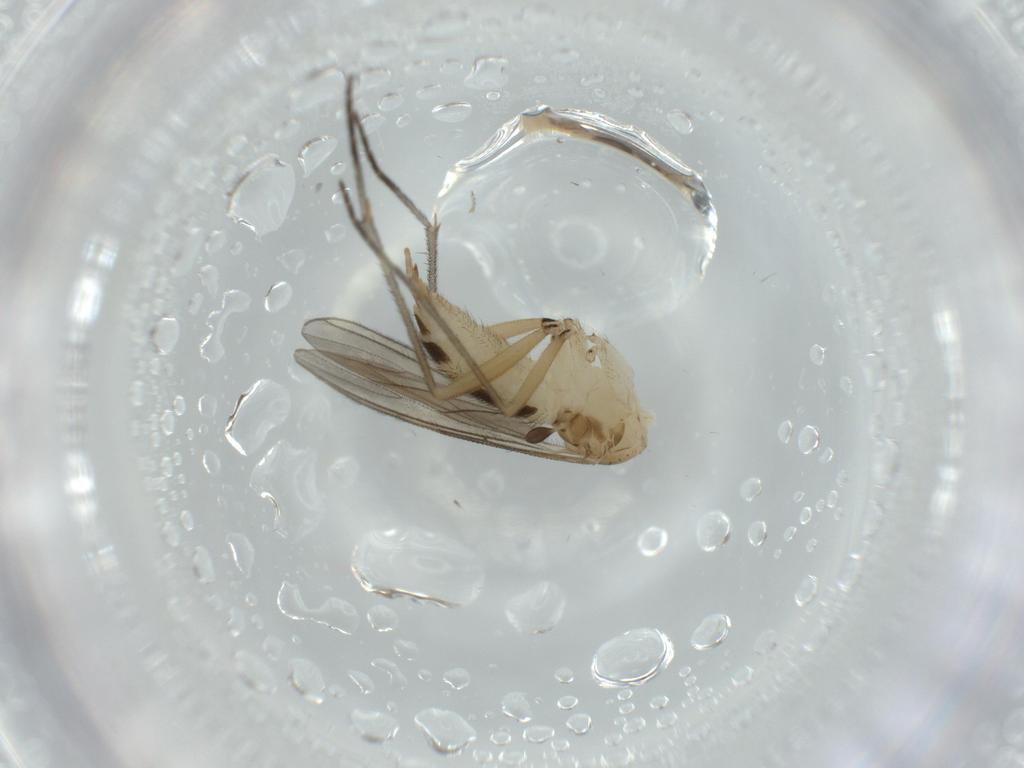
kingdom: Animalia
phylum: Arthropoda
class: Insecta
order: Diptera
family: Sciaridae
